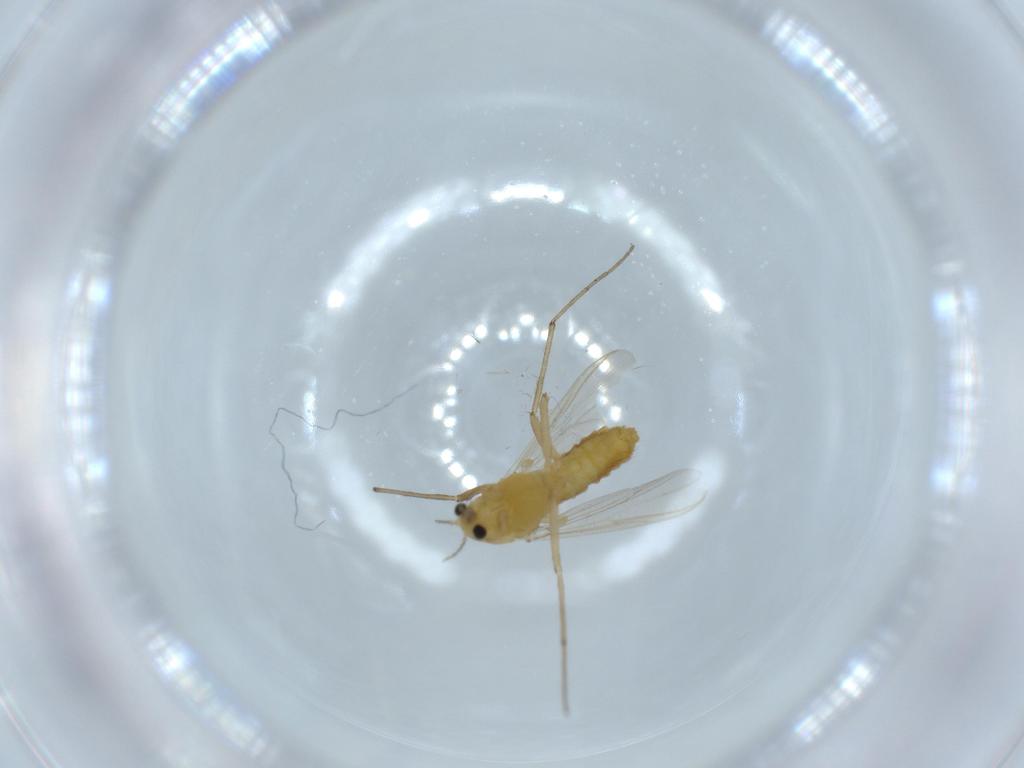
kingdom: Animalia
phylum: Arthropoda
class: Insecta
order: Diptera
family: Chironomidae
